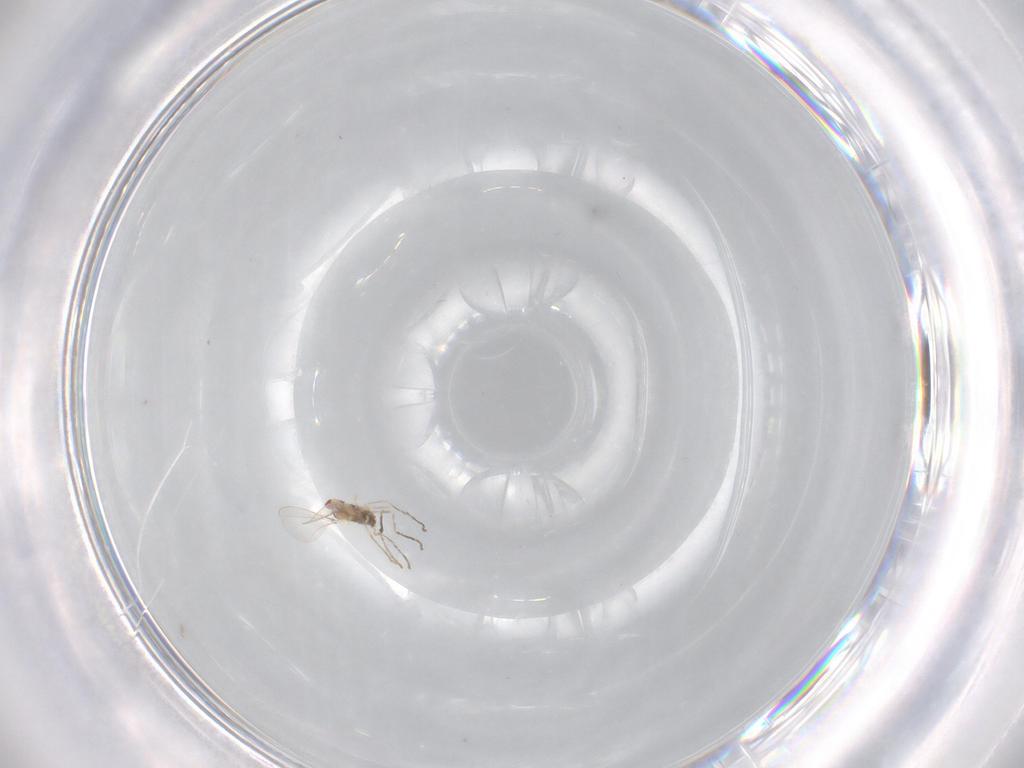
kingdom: Animalia
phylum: Arthropoda
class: Insecta
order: Diptera
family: Cecidomyiidae
